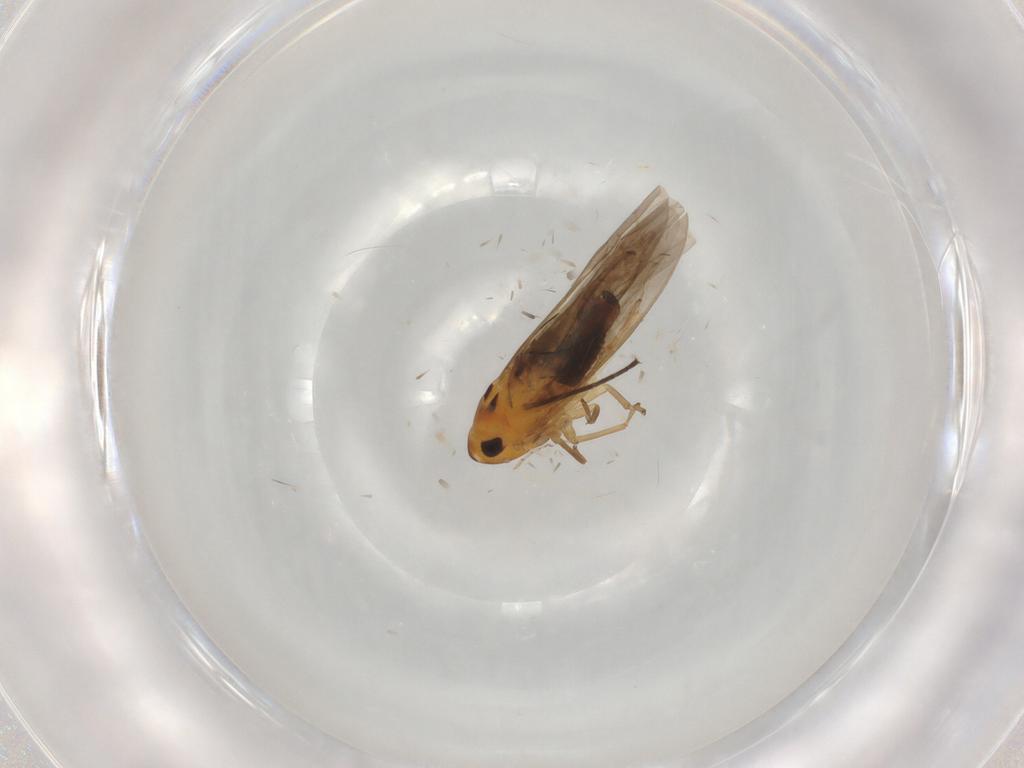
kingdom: Animalia
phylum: Arthropoda
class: Insecta
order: Hemiptera
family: Cicadellidae
